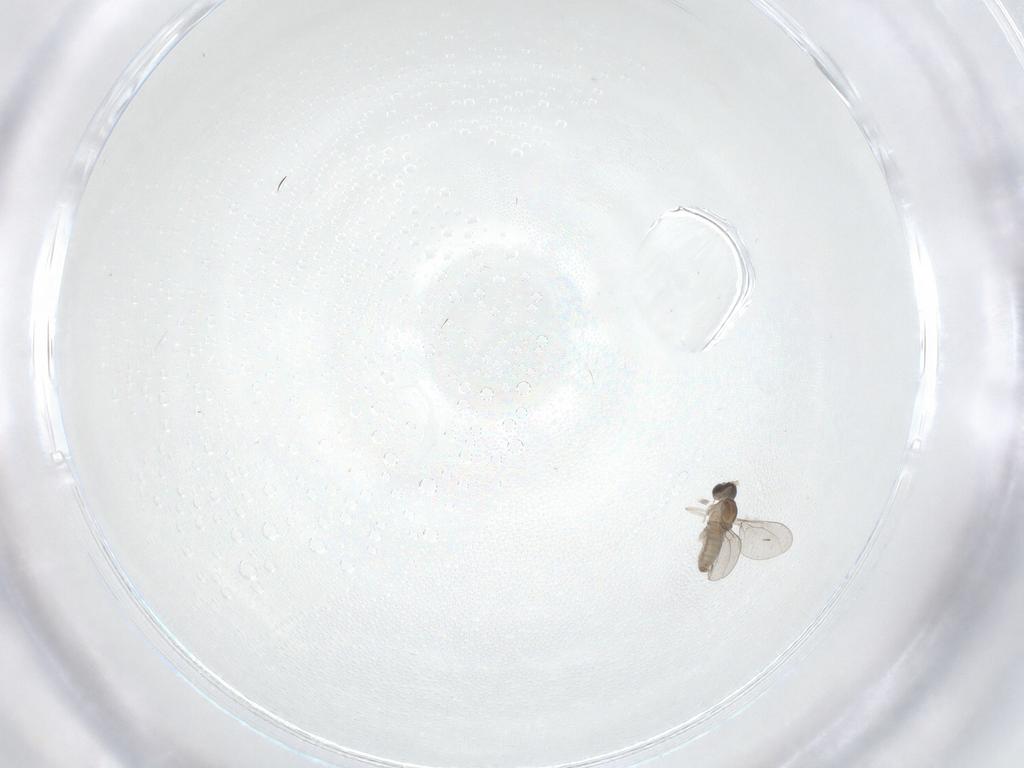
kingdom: Animalia
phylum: Arthropoda
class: Insecta
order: Diptera
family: Cecidomyiidae
